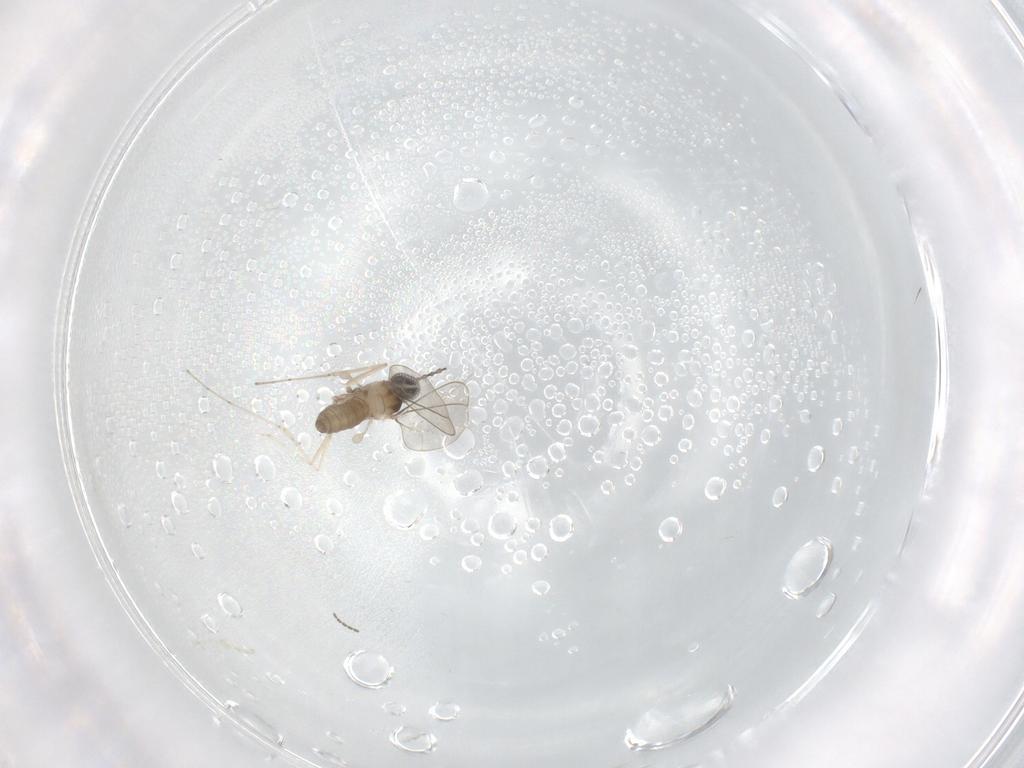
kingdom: Animalia
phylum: Arthropoda
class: Insecta
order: Diptera
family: Cecidomyiidae
